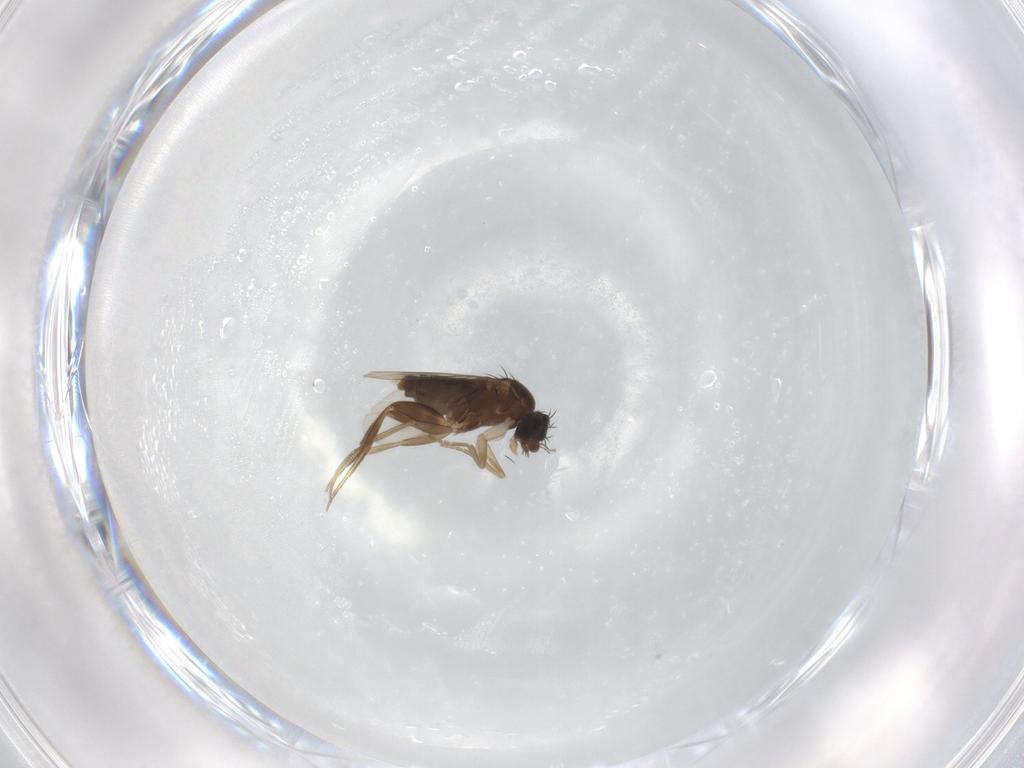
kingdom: Animalia
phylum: Arthropoda
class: Insecta
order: Diptera
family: Phoridae
